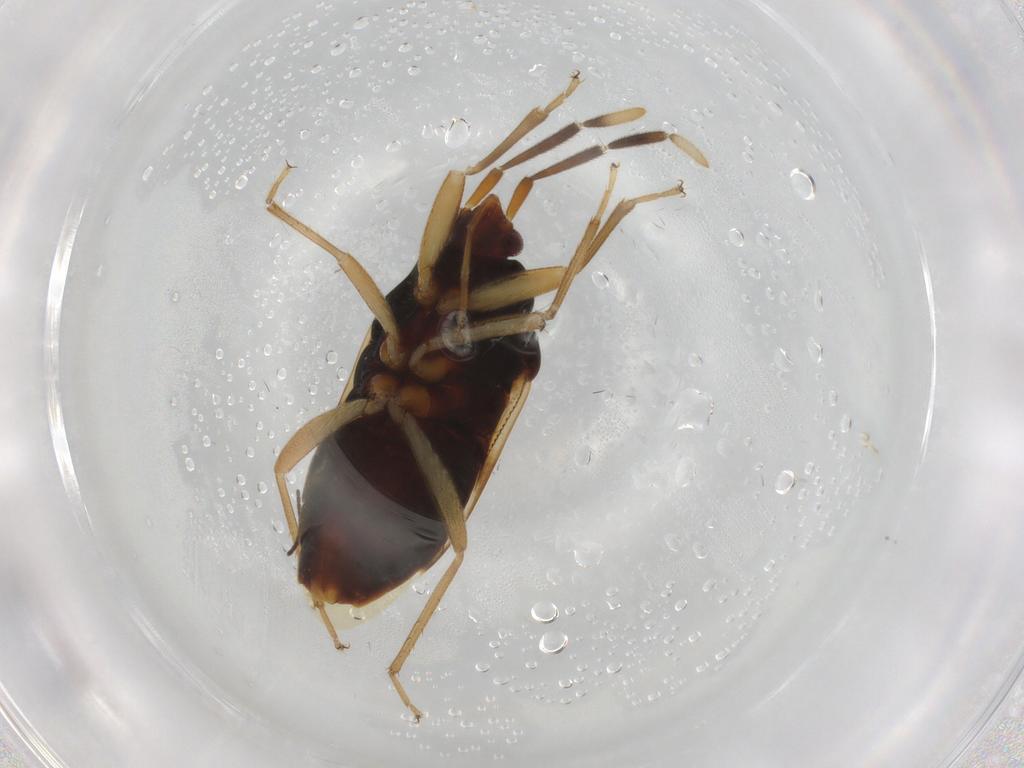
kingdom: Animalia
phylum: Arthropoda
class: Insecta
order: Hemiptera
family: Rhyparochromidae
